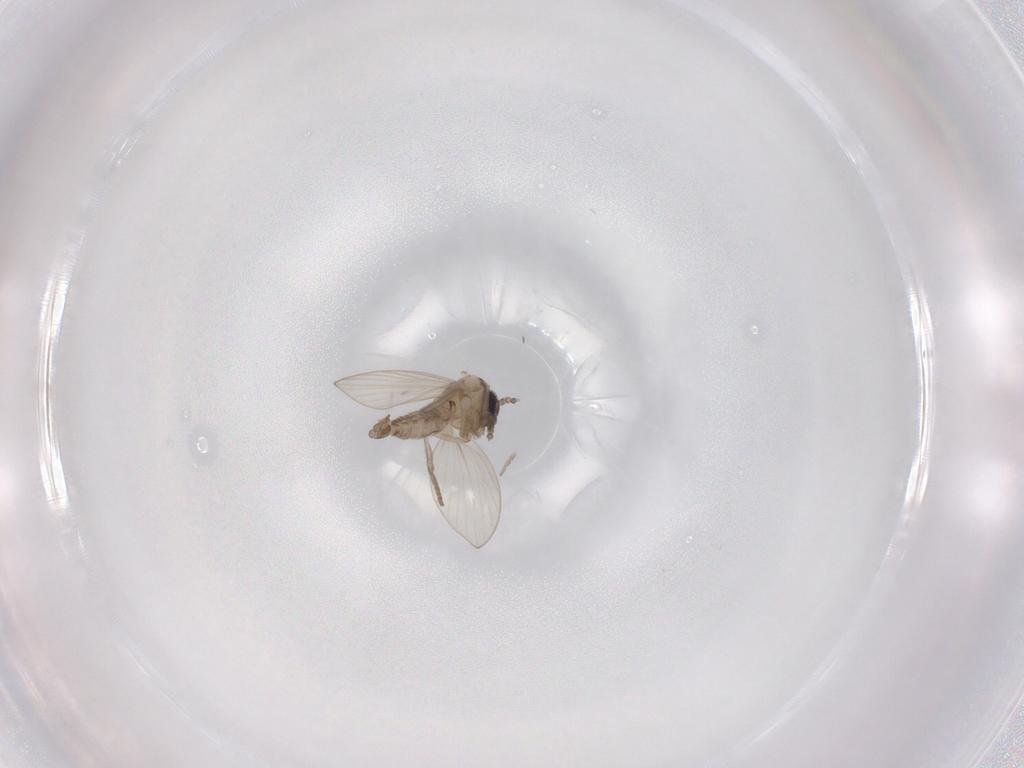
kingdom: Animalia
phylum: Arthropoda
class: Insecta
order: Diptera
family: Psychodidae
